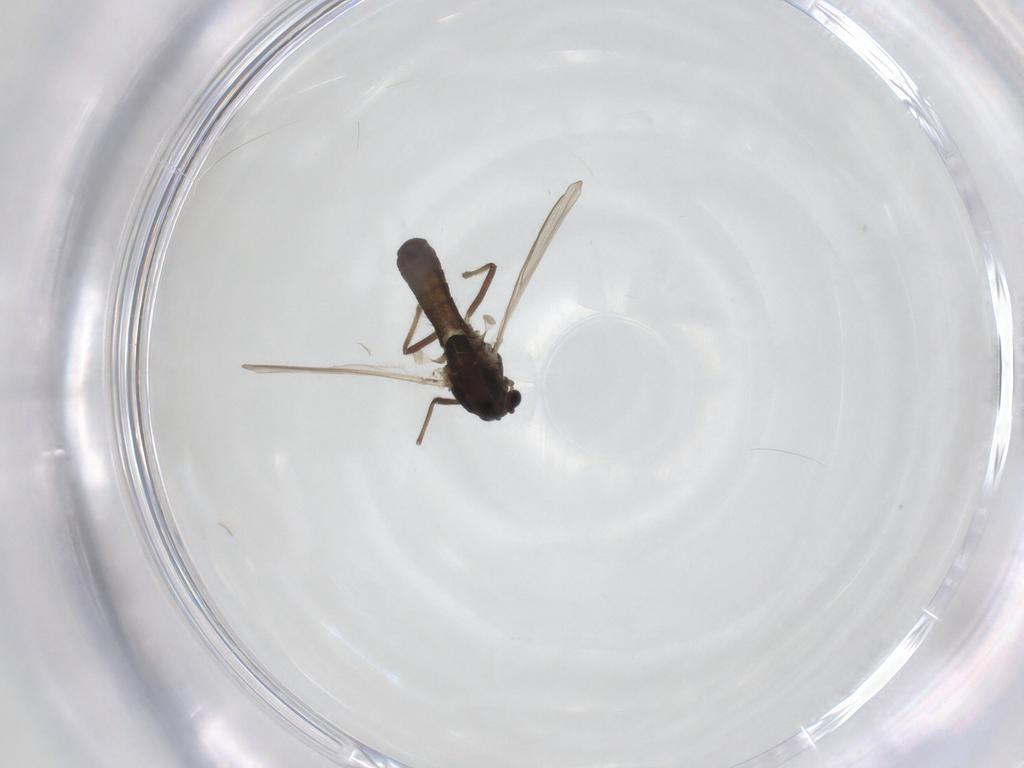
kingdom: Animalia
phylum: Arthropoda
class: Insecta
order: Diptera
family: Chironomidae
